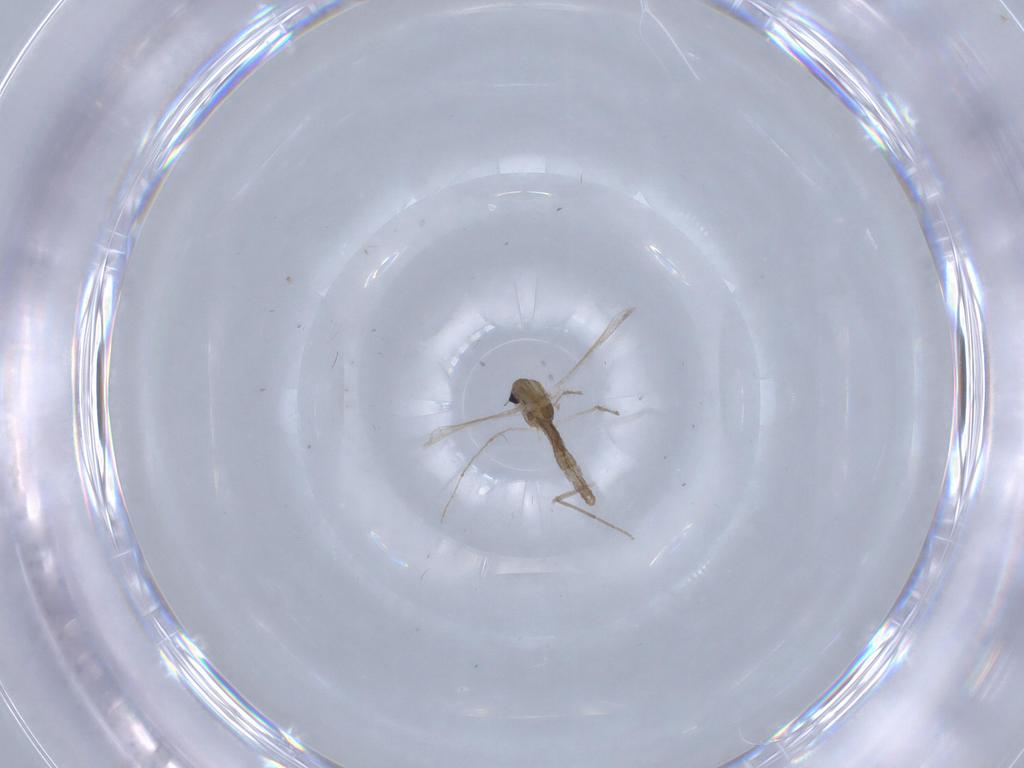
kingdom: Animalia
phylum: Arthropoda
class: Insecta
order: Diptera
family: Chironomidae
